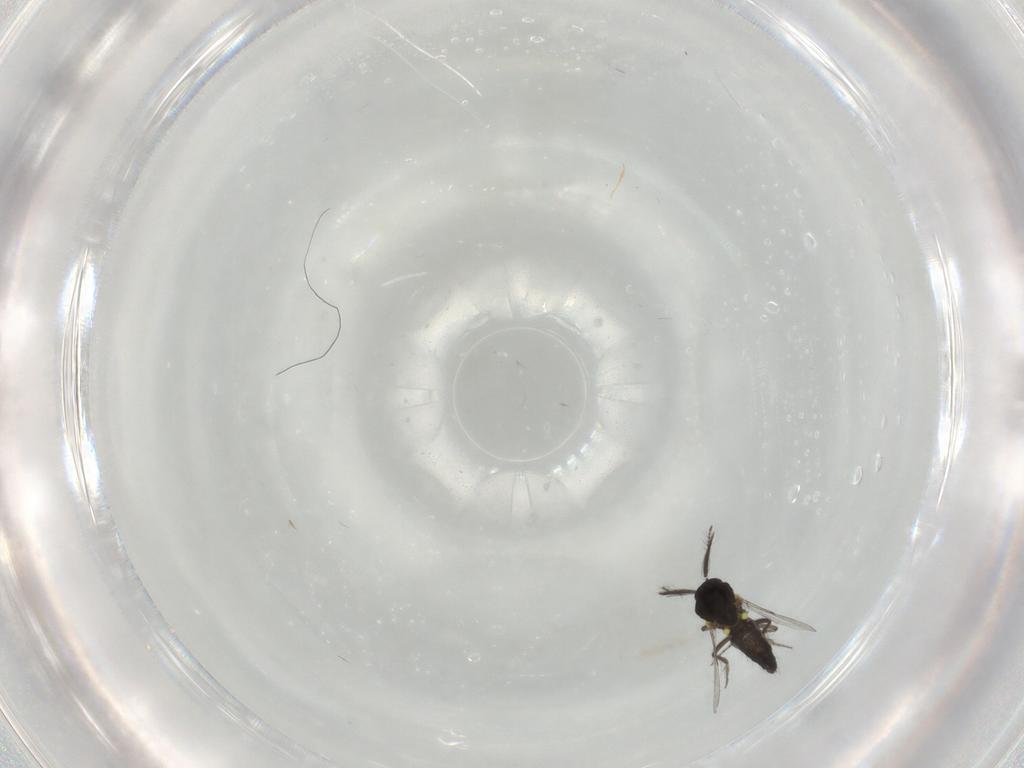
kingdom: Animalia
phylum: Arthropoda
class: Insecta
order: Diptera
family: Ceratopogonidae
